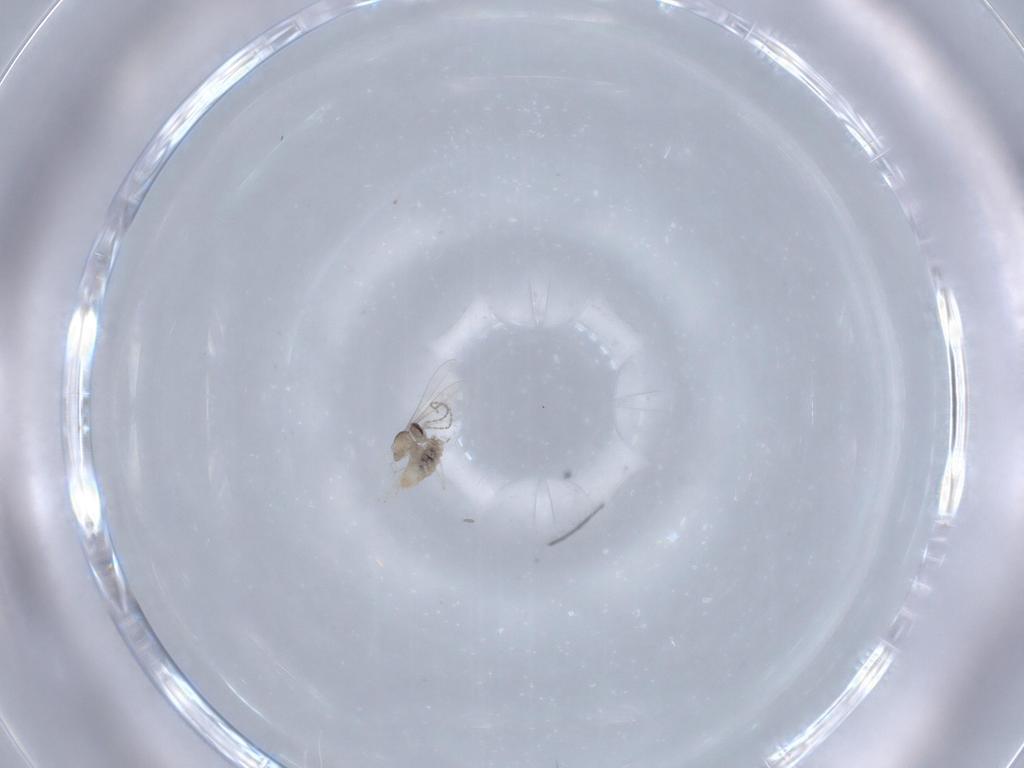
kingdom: Animalia
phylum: Arthropoda
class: Insecta
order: Diptera
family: Cecidomyiidae
